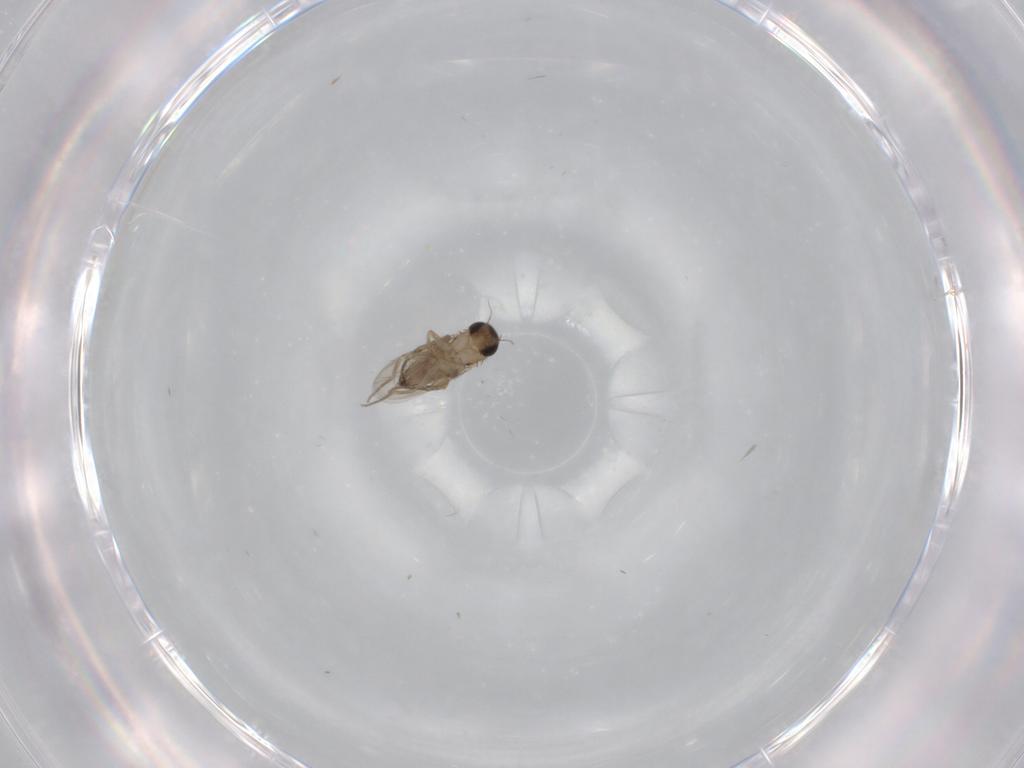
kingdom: Animalia
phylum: Arthropoda
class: Insecta
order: Diptera
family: Phoridae
